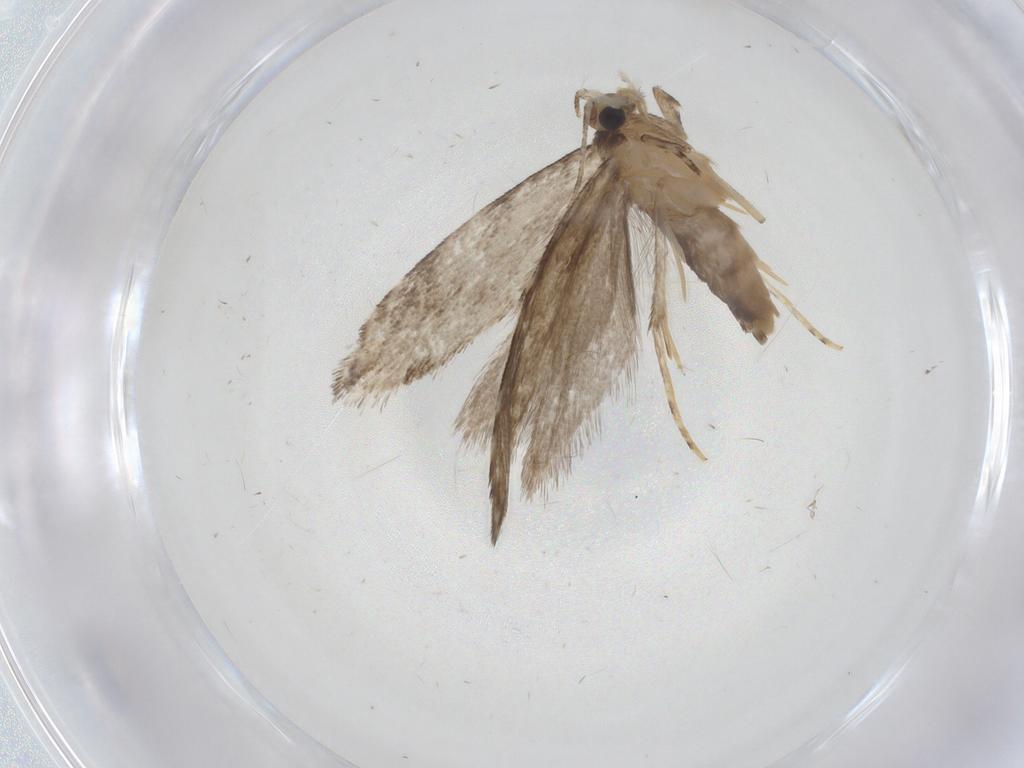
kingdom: Animalia
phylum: Arthropoda
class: Insecta
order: Lepidoptera
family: Tineidae
